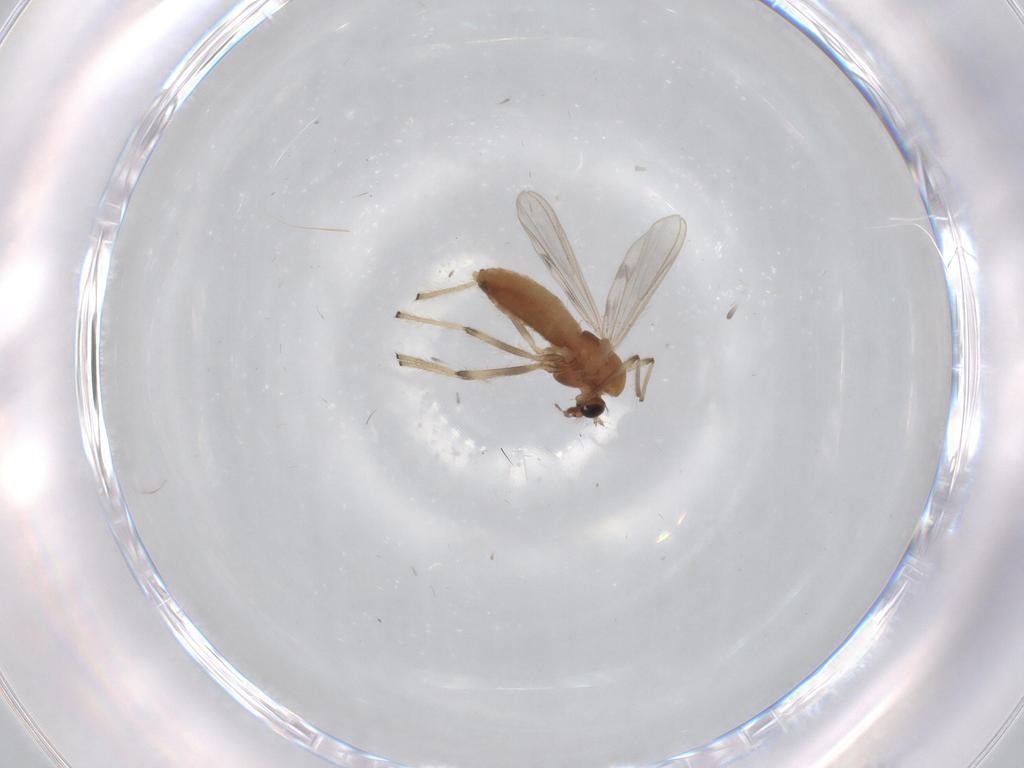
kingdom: Animalia
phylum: Arthropoda
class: Insecta
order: Diptera
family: Chironomidae
